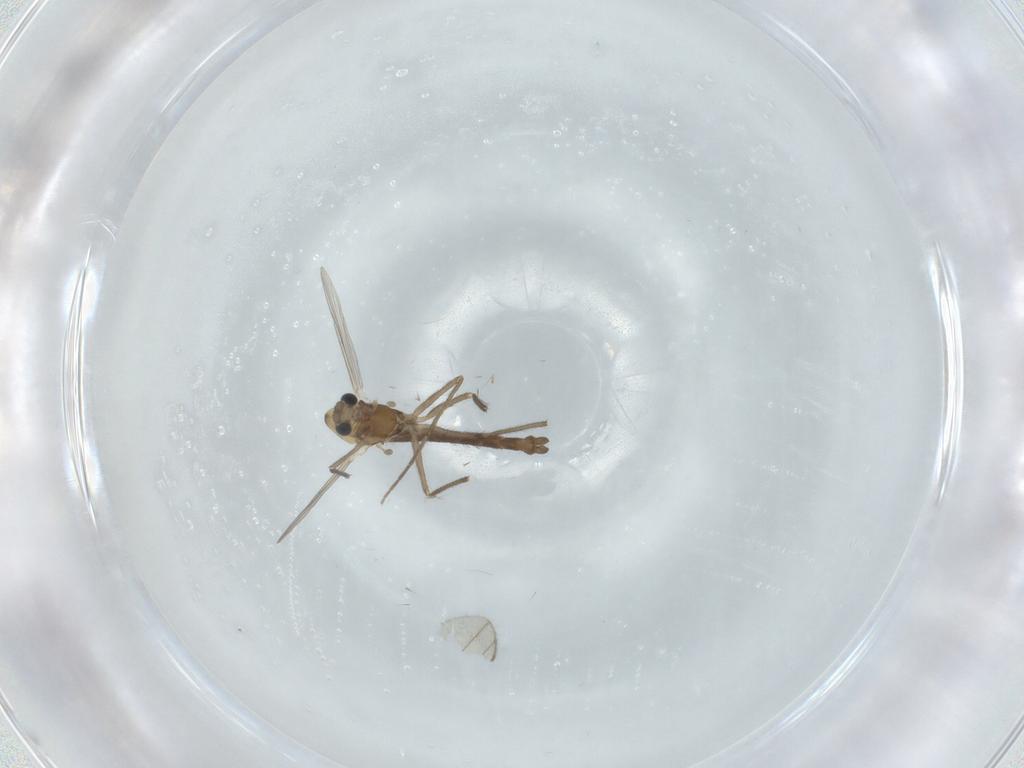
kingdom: Animalia
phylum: Arthropoda
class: Insecta
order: Diptera
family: Chironomidae
